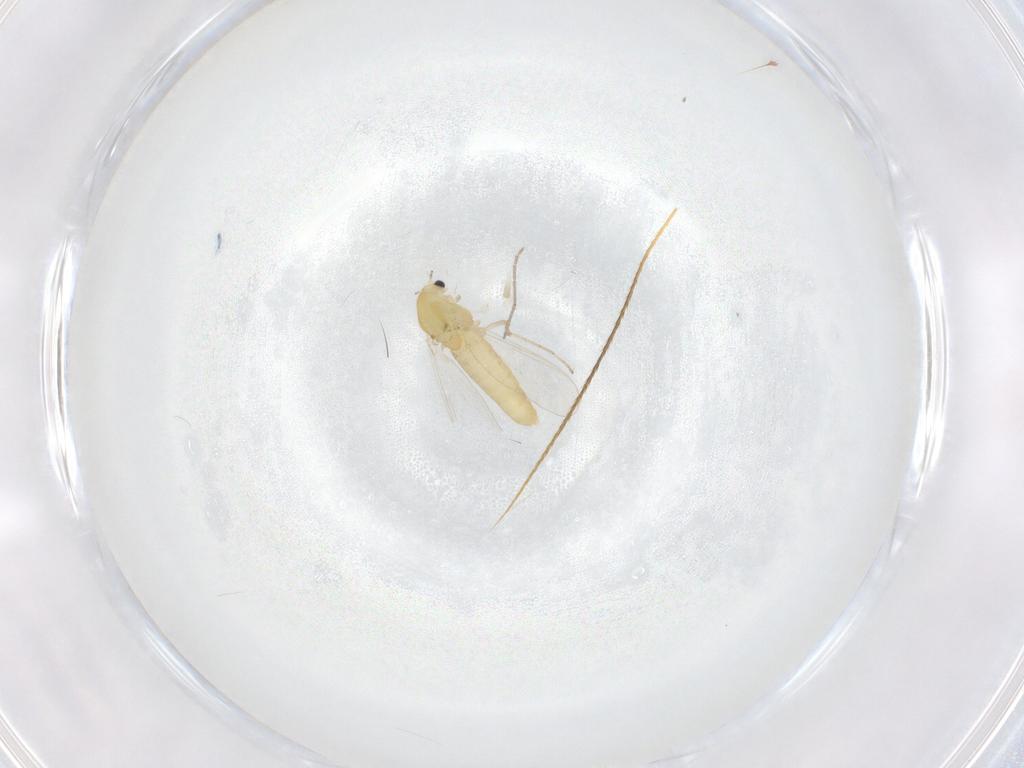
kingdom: Animalia
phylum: Arthropoda
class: Insecta
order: Diptera
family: Chironomidae
